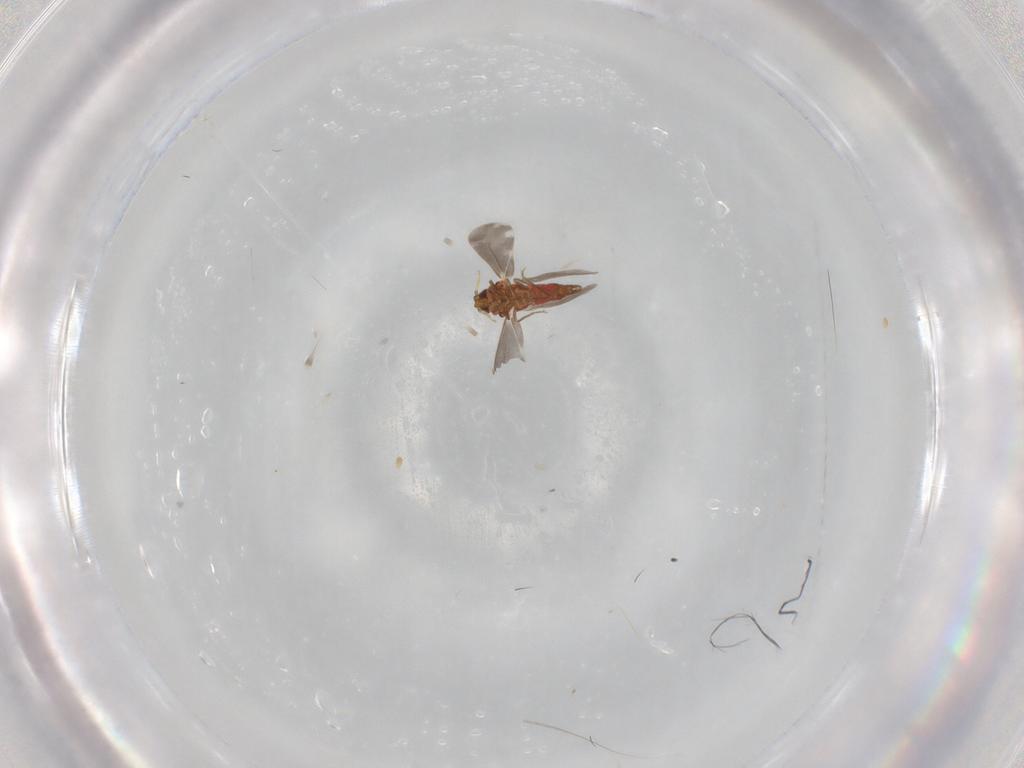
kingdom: Animalia
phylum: Arthropoda
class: Insecta
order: Hemiptera
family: Aleyrodidae
